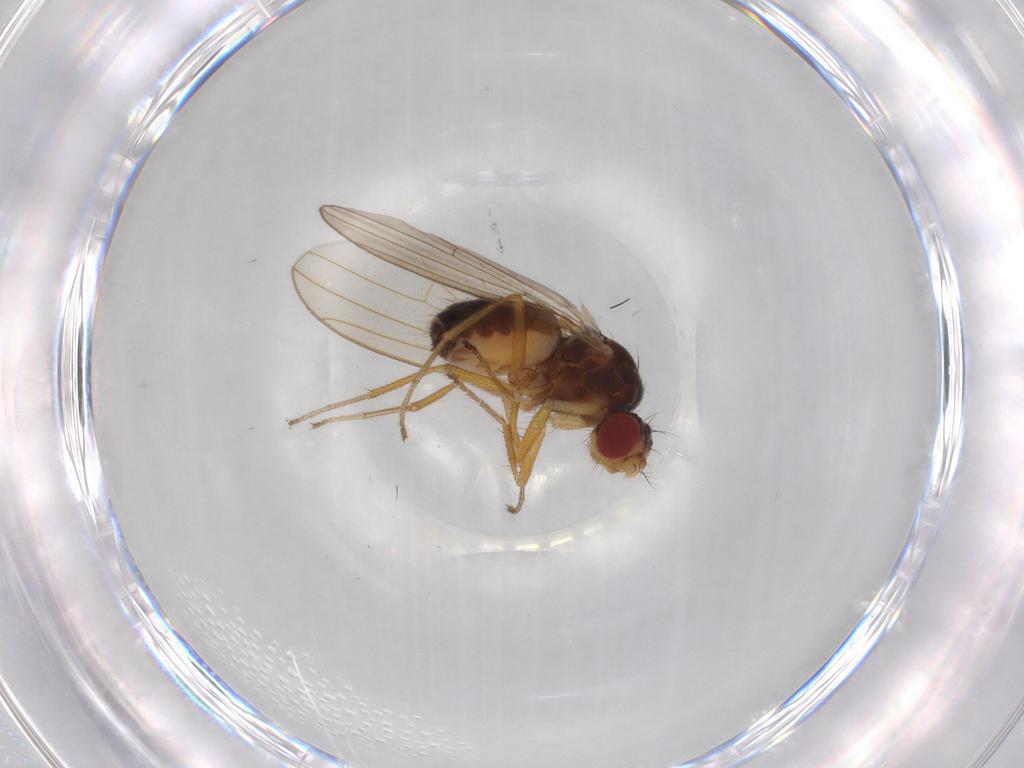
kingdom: Animalia
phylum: Arthropoda
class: Insecta
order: Diptera
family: Drosophilidae
